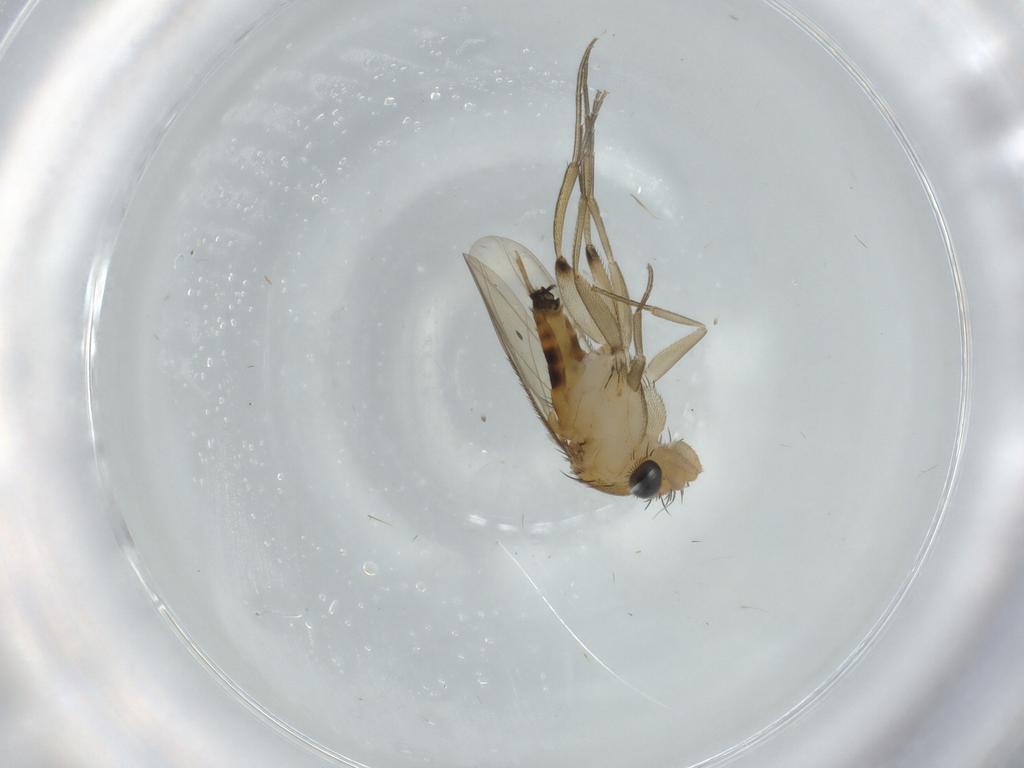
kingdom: Animalia
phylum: Arthropoda
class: Insecta
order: Diptera
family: Phoridae
